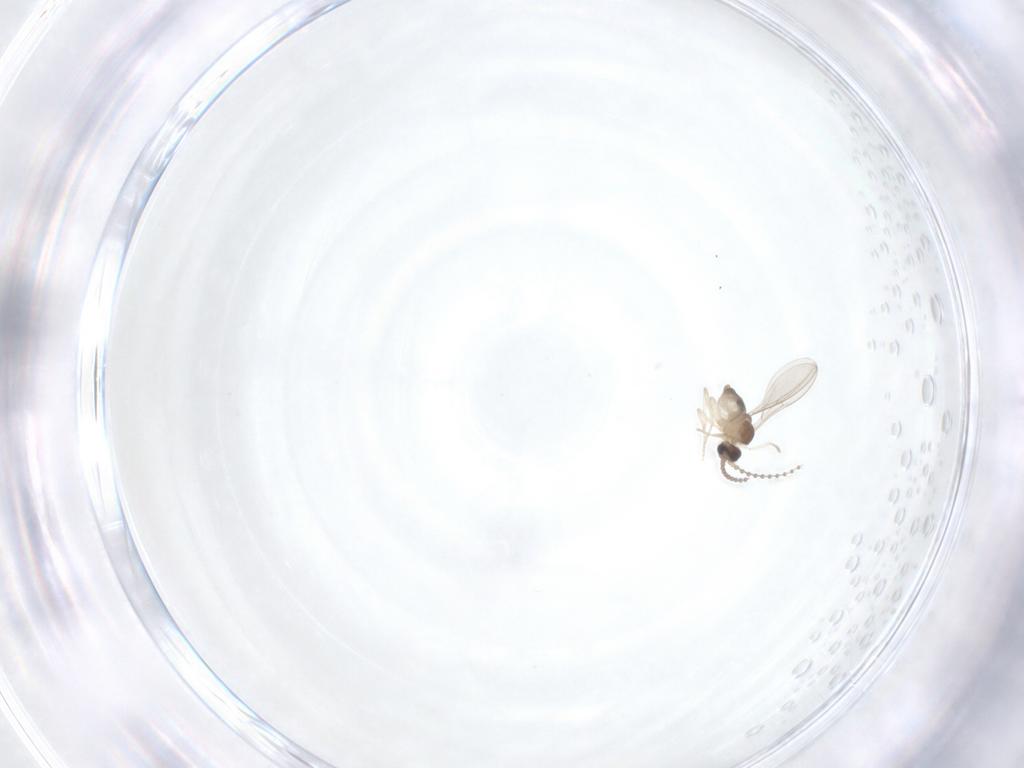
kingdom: Animalia
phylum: Arthropoda
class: Insecta
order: Diptera
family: Cecidomyiidae
